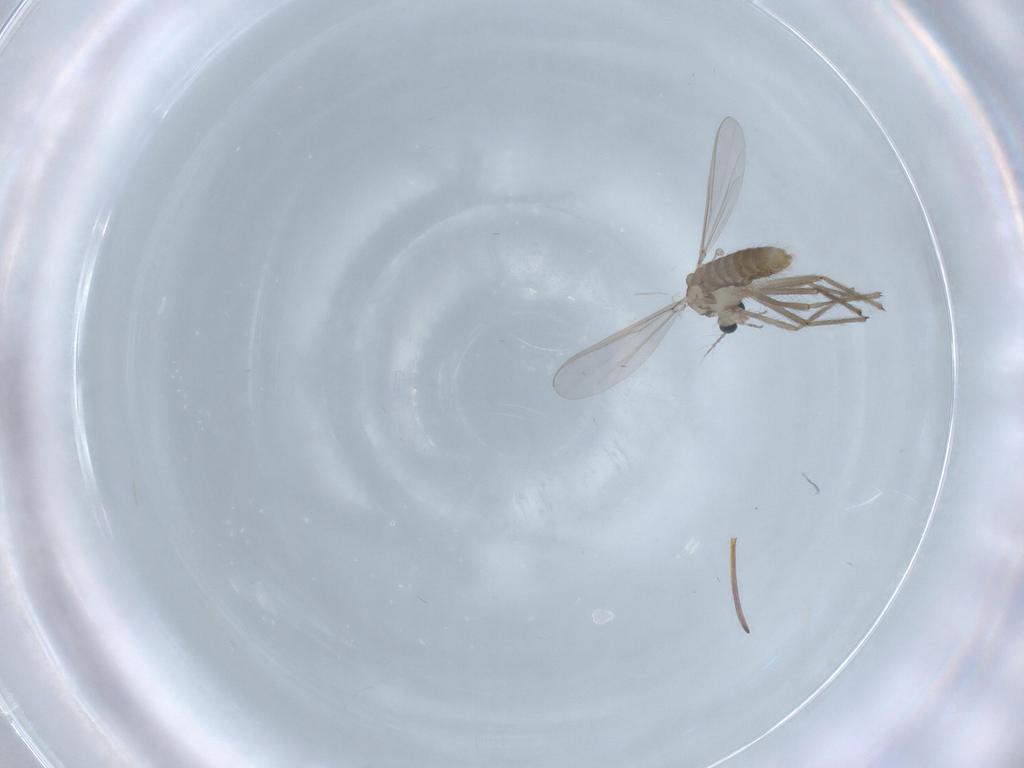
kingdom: Animalia
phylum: Arthropoda
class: Insecta
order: Diptera
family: Chironomidae
